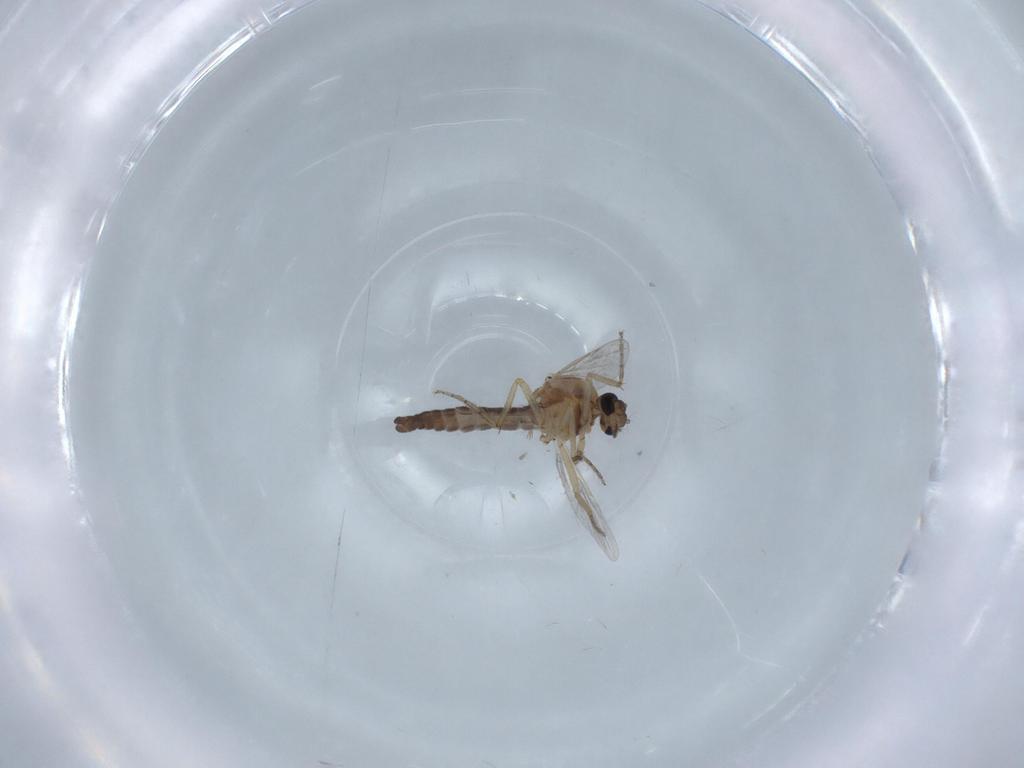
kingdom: Animalia
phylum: Arthropoda
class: Insecta
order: Diptera
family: Ceratopogonidae
